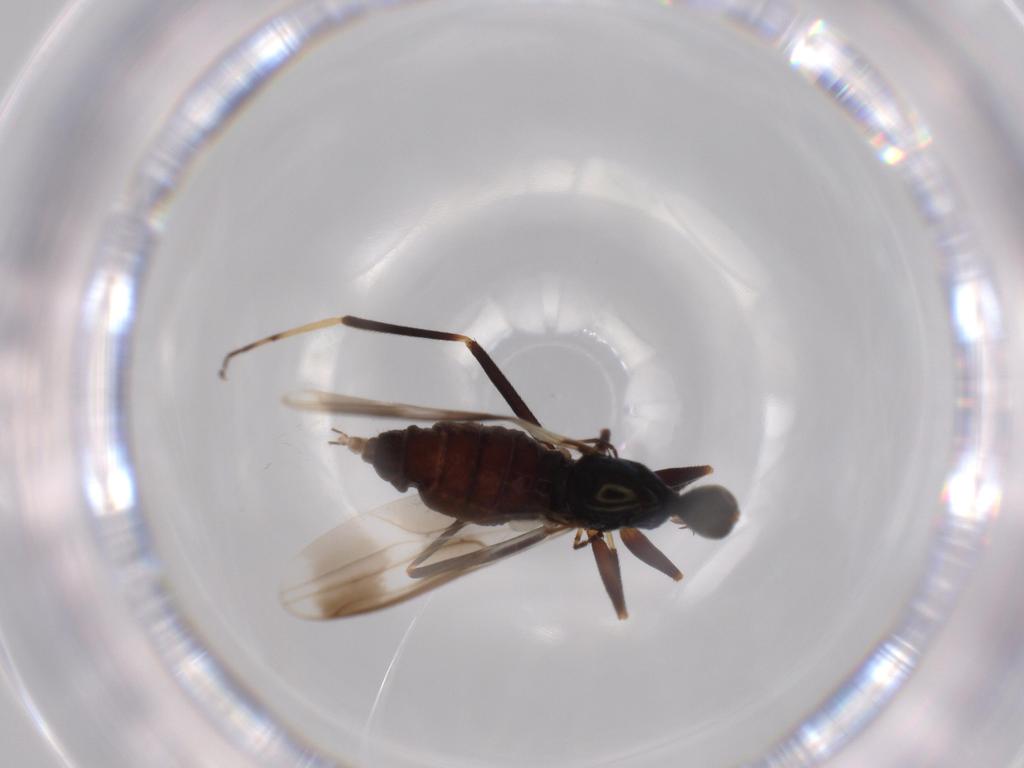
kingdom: Animalia
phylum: Arthropoda
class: Insecta
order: Diptera
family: Hybotidae
